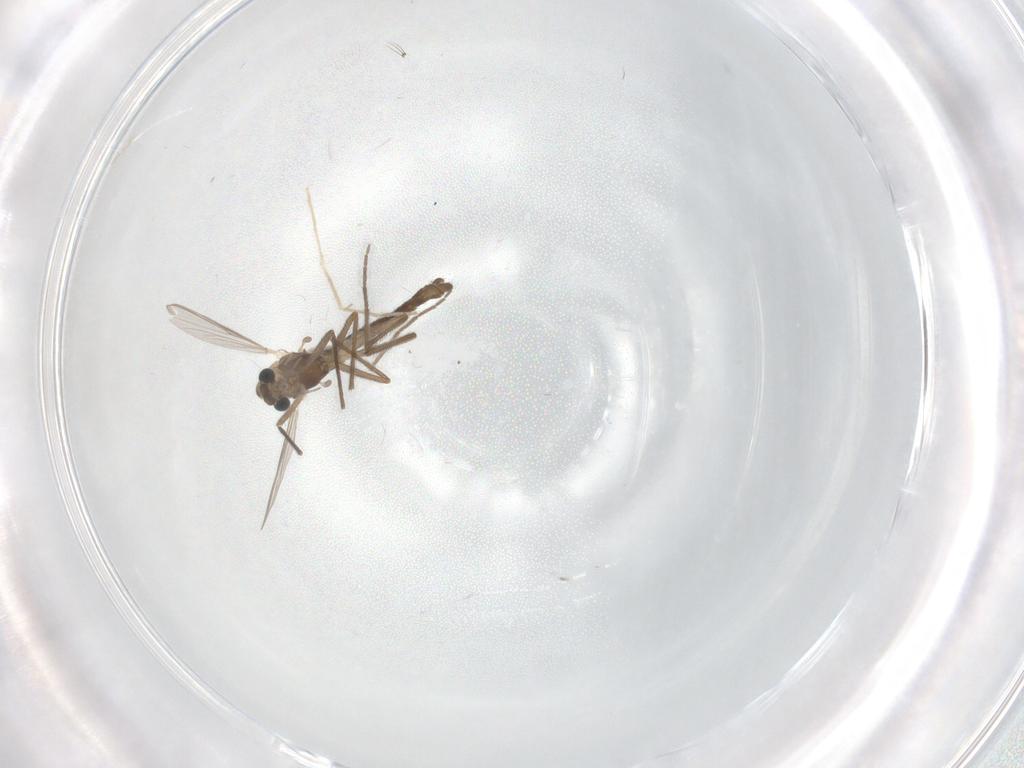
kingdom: Animalia
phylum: Arthropoda
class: Insecta
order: Diptera
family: Chironomidae
